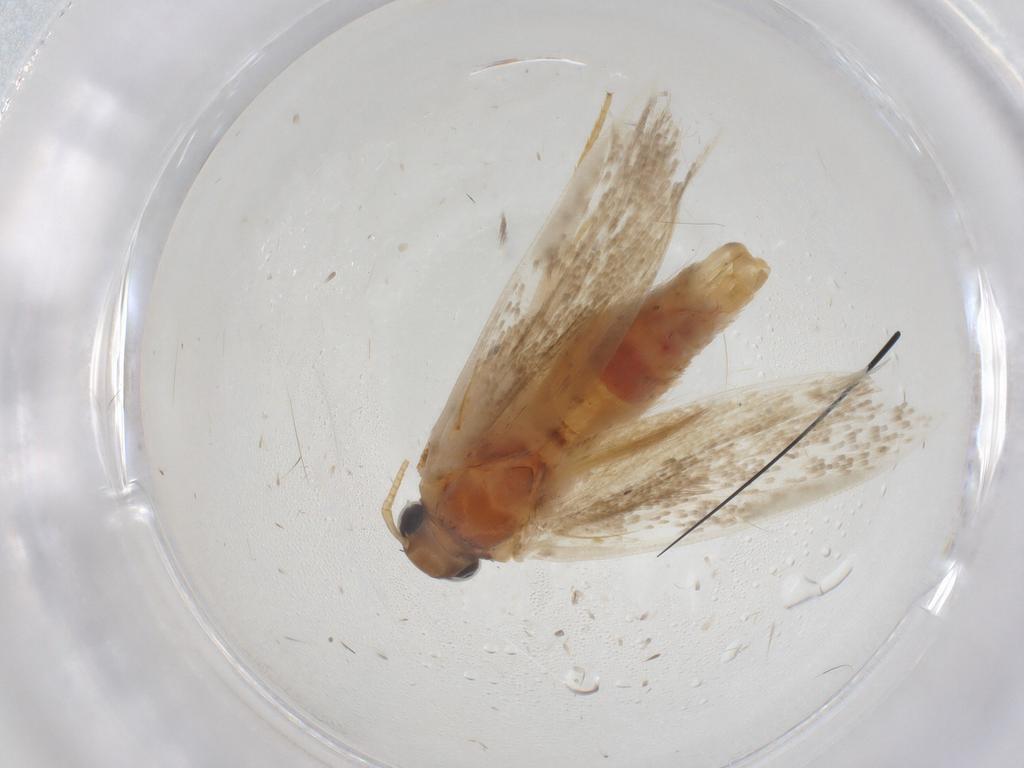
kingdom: Animalia
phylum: Arthropoda
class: Insecta
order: Lepidoptera
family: Gelechiidae
